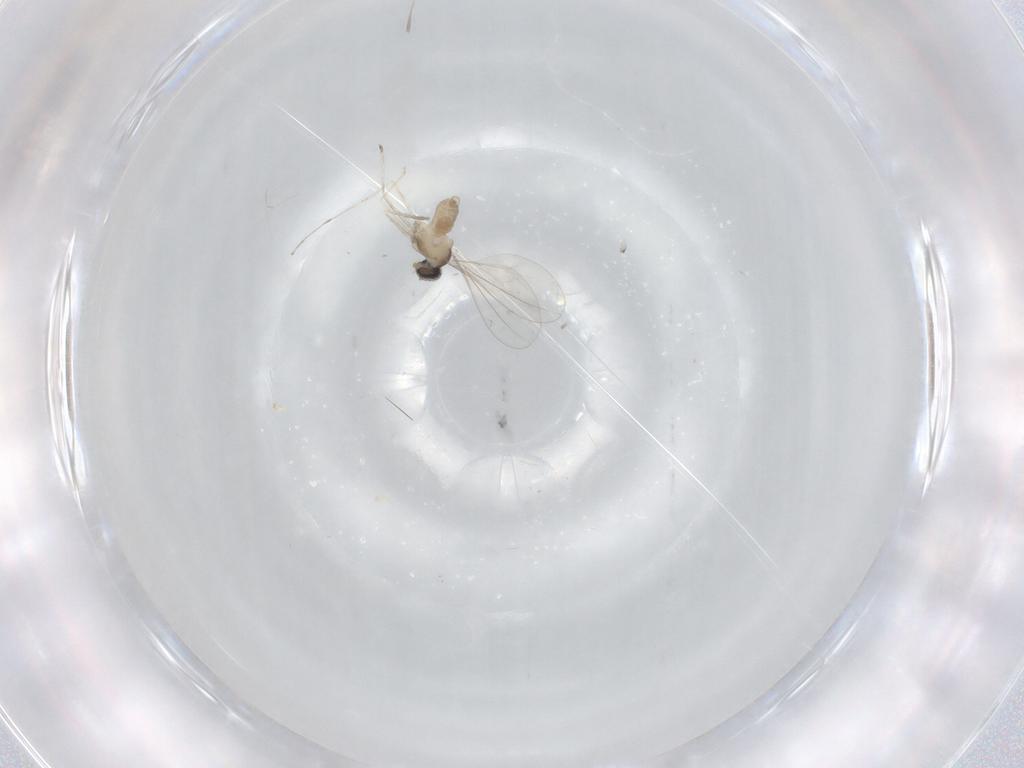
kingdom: Animalia
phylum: Arthropoda
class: Insecta
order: Diptera
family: Cecidomyiidae
